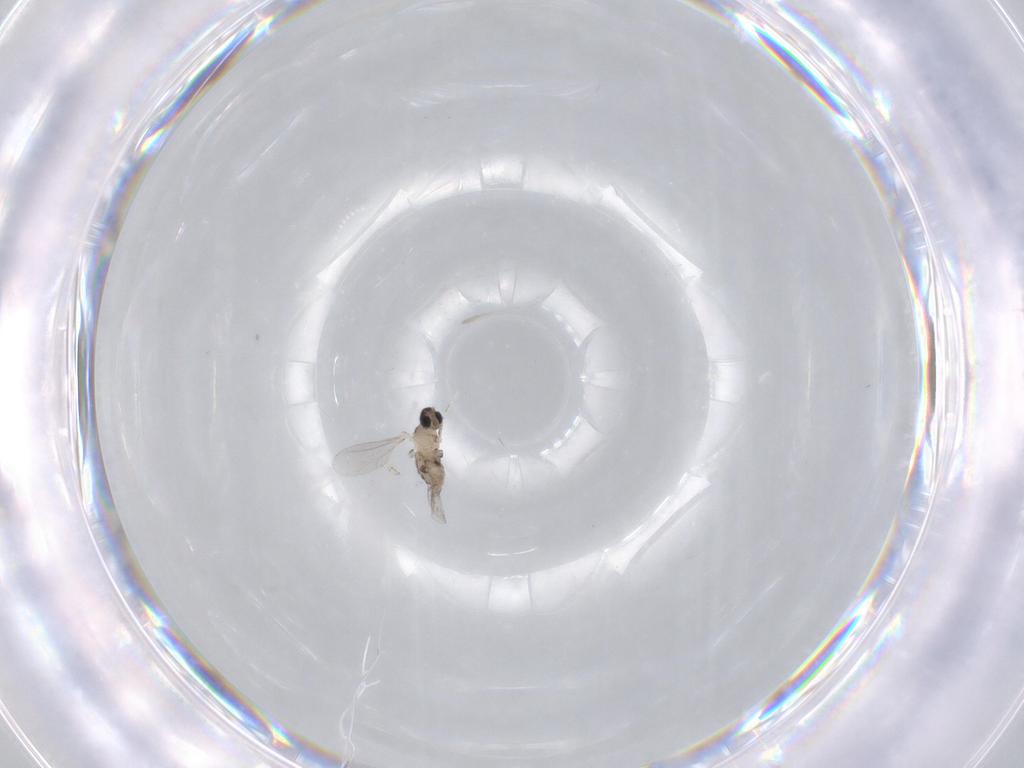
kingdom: Animalia
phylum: Arthropoda
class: Insecta
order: Diptera
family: Cecidomyiidae
